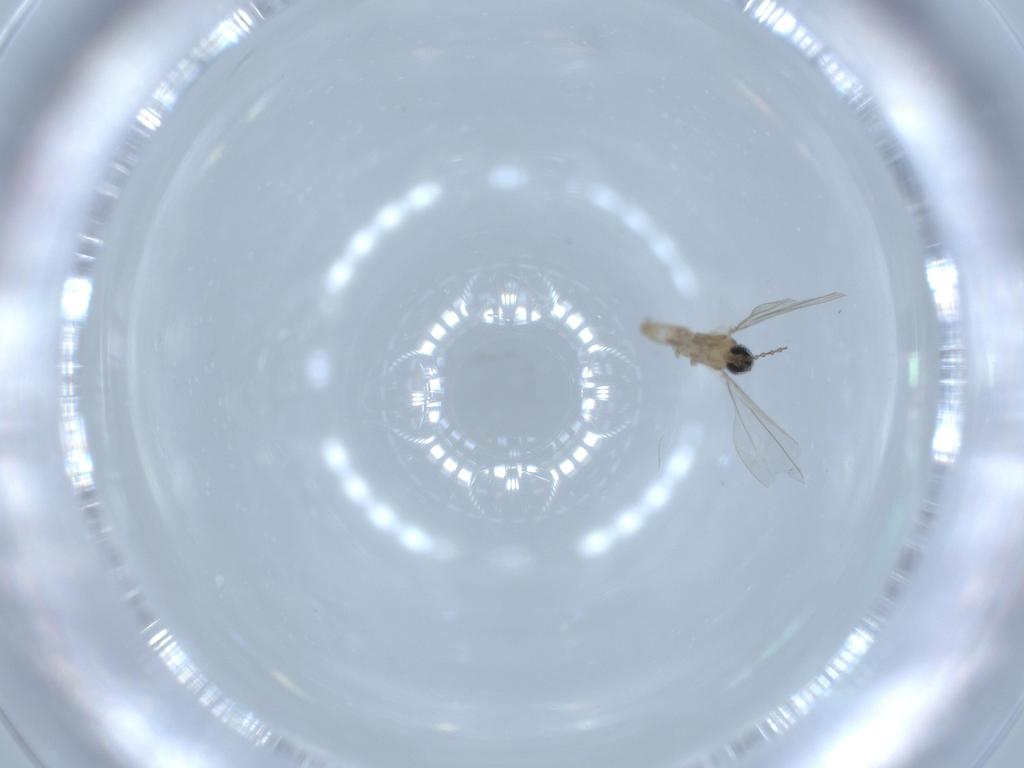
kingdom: Animalia
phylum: Arthropoda
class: Insecta
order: Diptera
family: Cecidomyiidae
